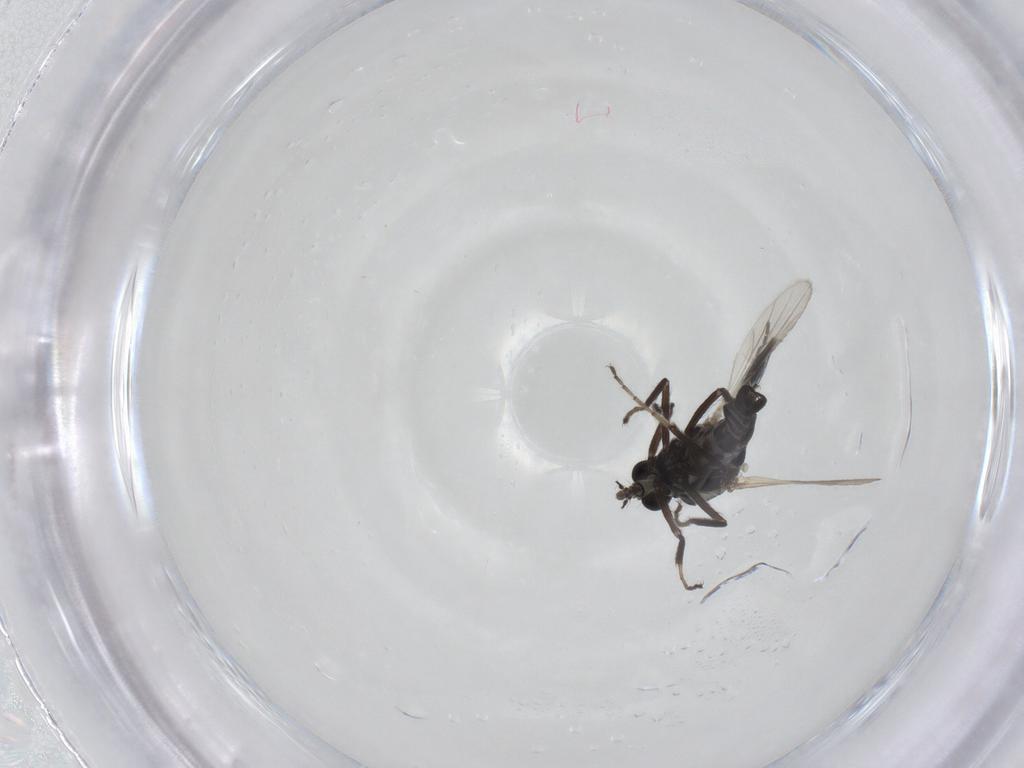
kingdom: Animalia
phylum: Arthropoda
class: Insecta
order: Diptera
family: Ceratopogonidae
